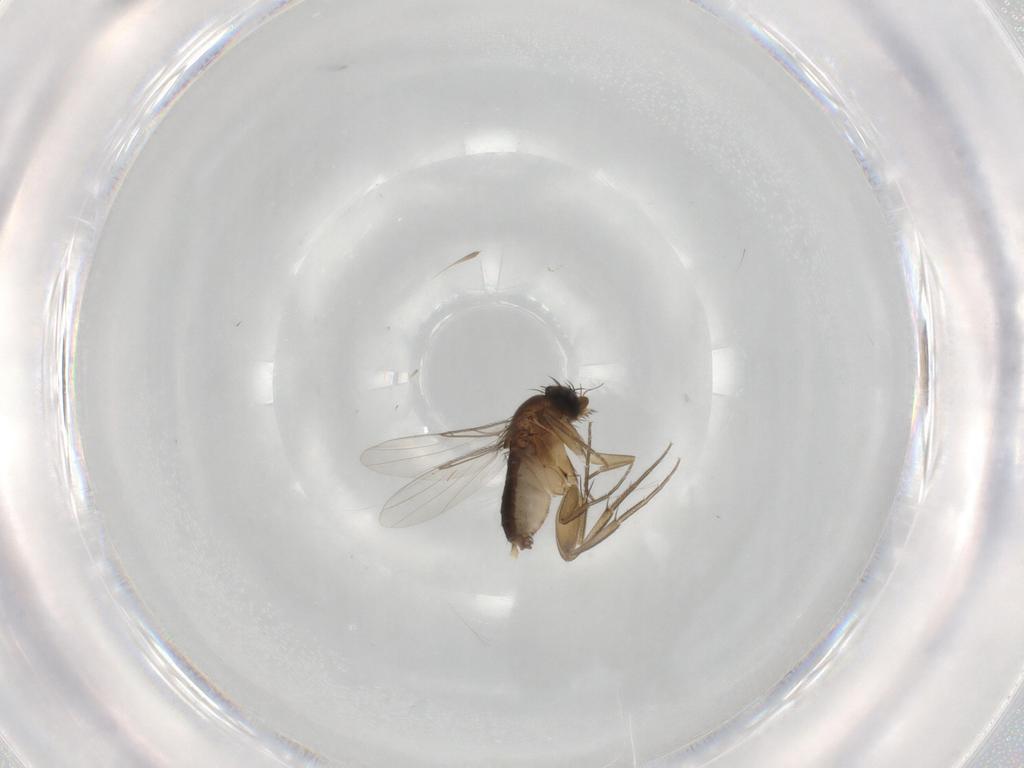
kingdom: Animalia
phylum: Arthropoda
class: Insecta
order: Diptera
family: Phoridae
